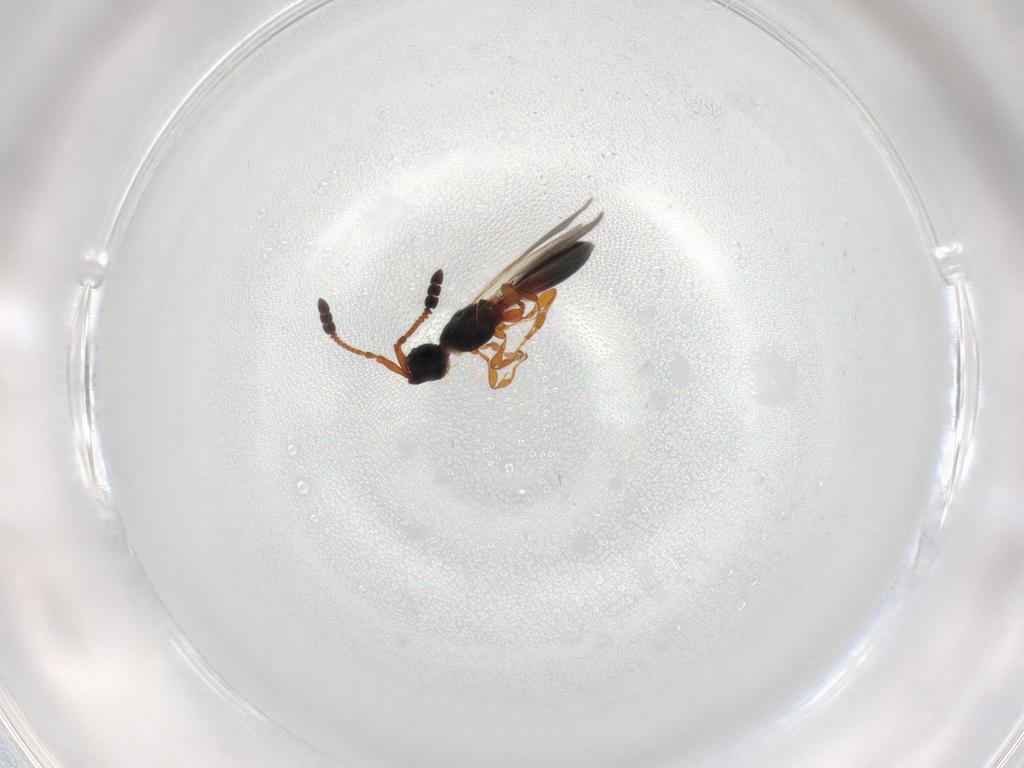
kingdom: Animalia
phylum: Arthropoda
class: Insecta
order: Hymenoptera
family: Diapriidae
